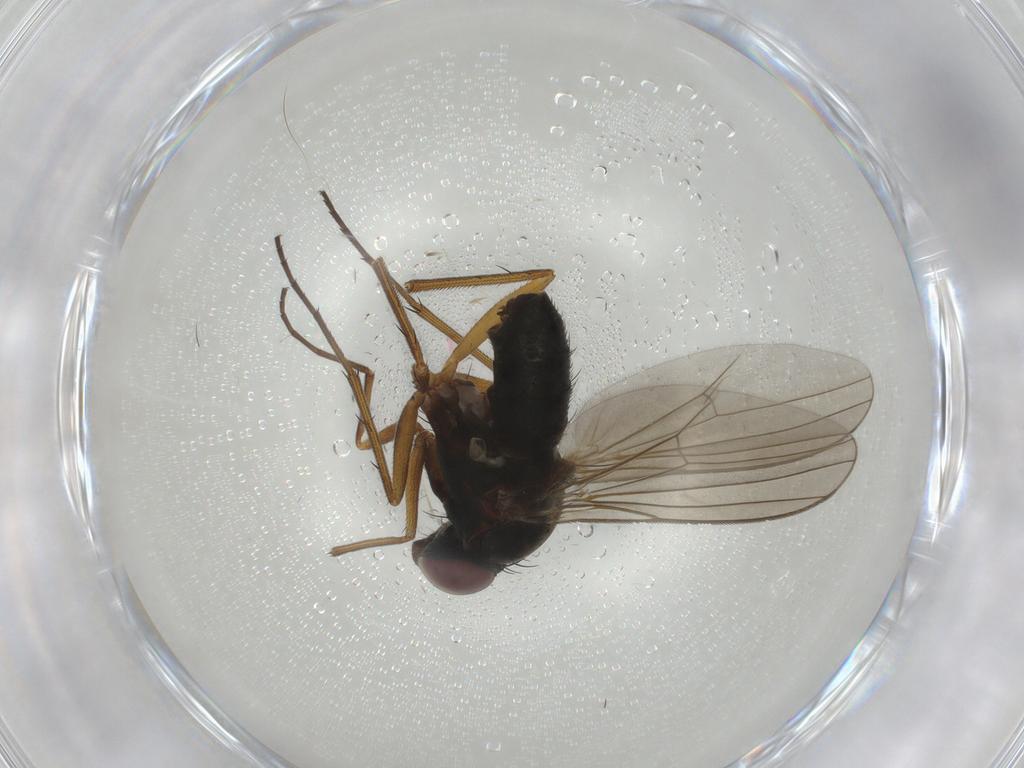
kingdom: Animalia
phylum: Arthropoda
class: Insecta
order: Diptera
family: Dolichopodidae
